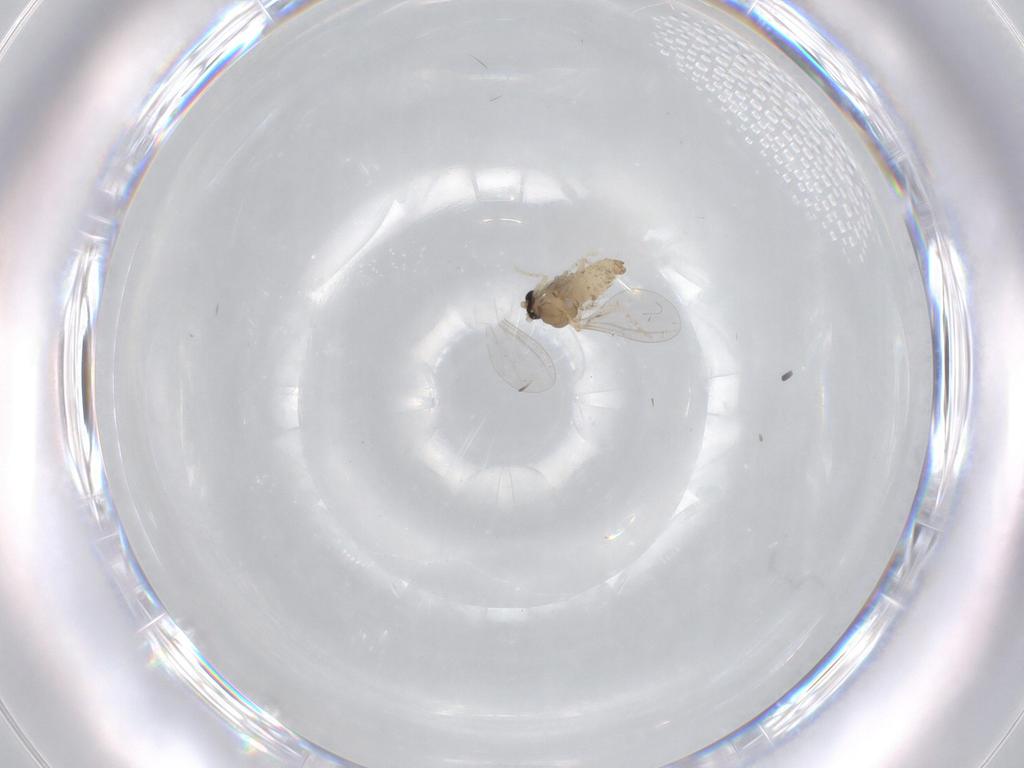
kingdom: Animalia
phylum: Arthropoda
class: Insecta
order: Diptera
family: Cecidomyiidae
